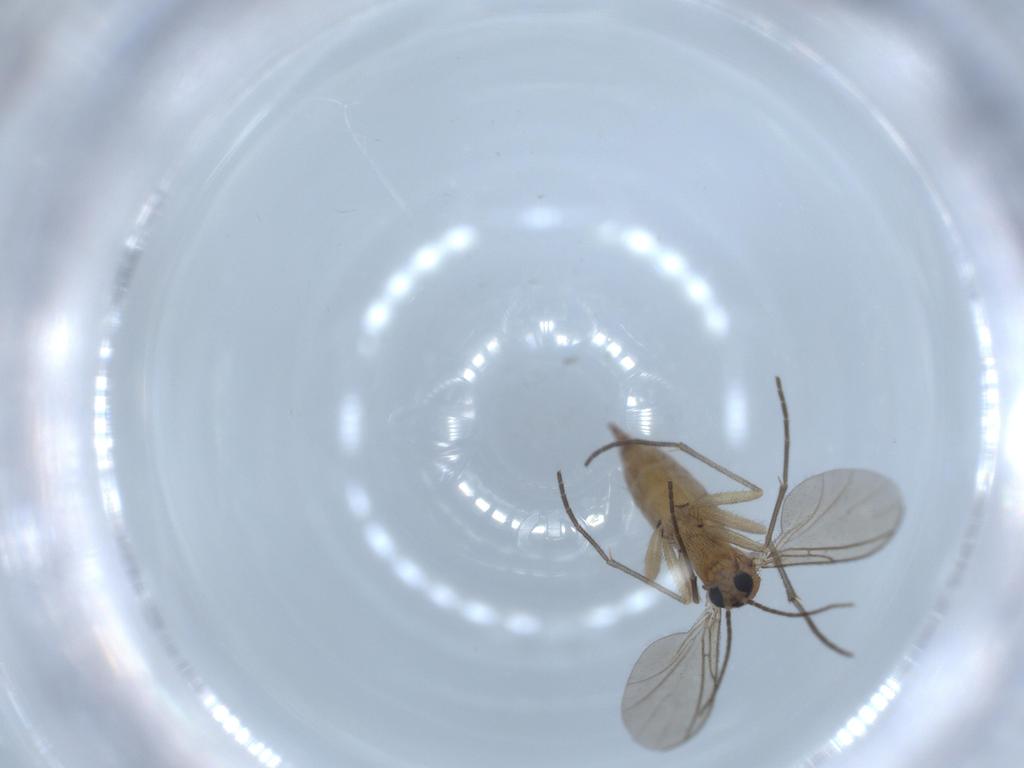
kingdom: Animalia
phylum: Arthropoda
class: Insecta
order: Diptera
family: Sciaridae
